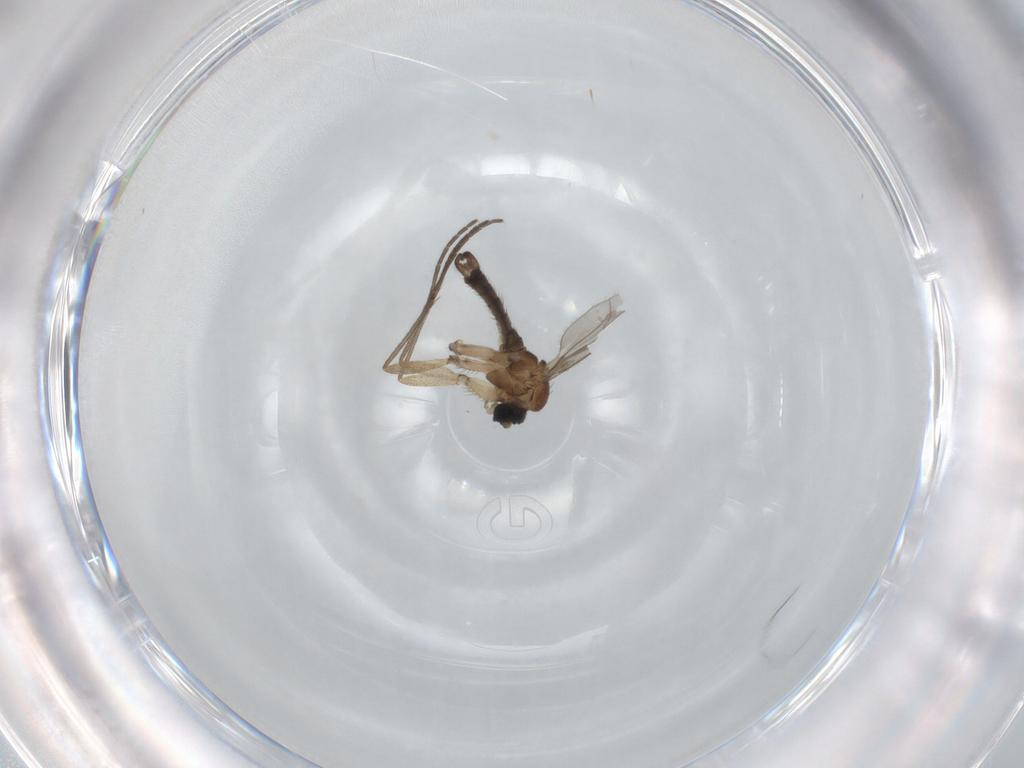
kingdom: Animalia
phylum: Arthropoda
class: Insecta
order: Diptera
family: Sciaridae
